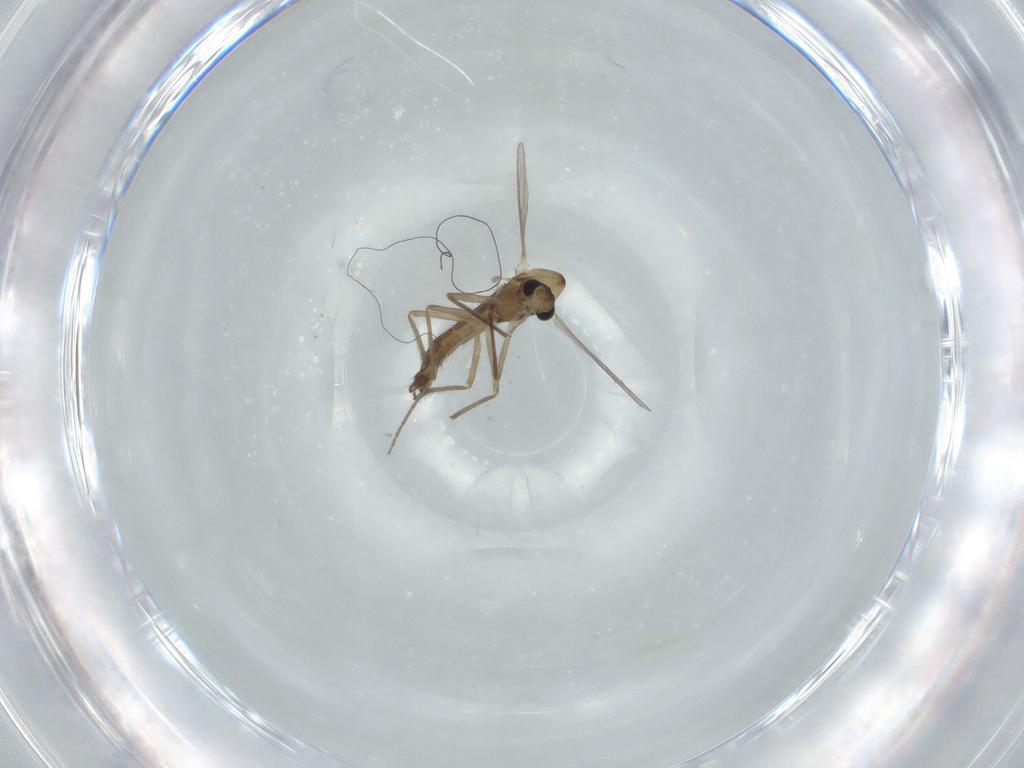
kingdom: Animalia
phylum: Arthropoda
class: Insecta
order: Diptera
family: Chironomidae
